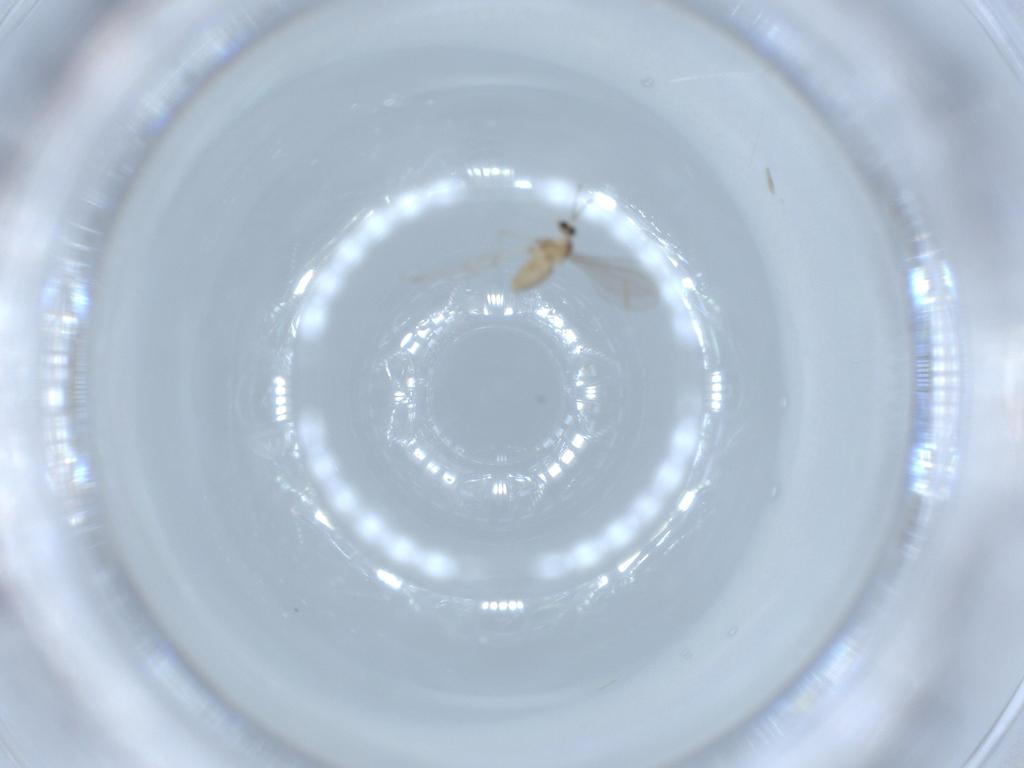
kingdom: Animalia
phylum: Arthropoda
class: Insecta
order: Diptera
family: Cecidomyiidae
